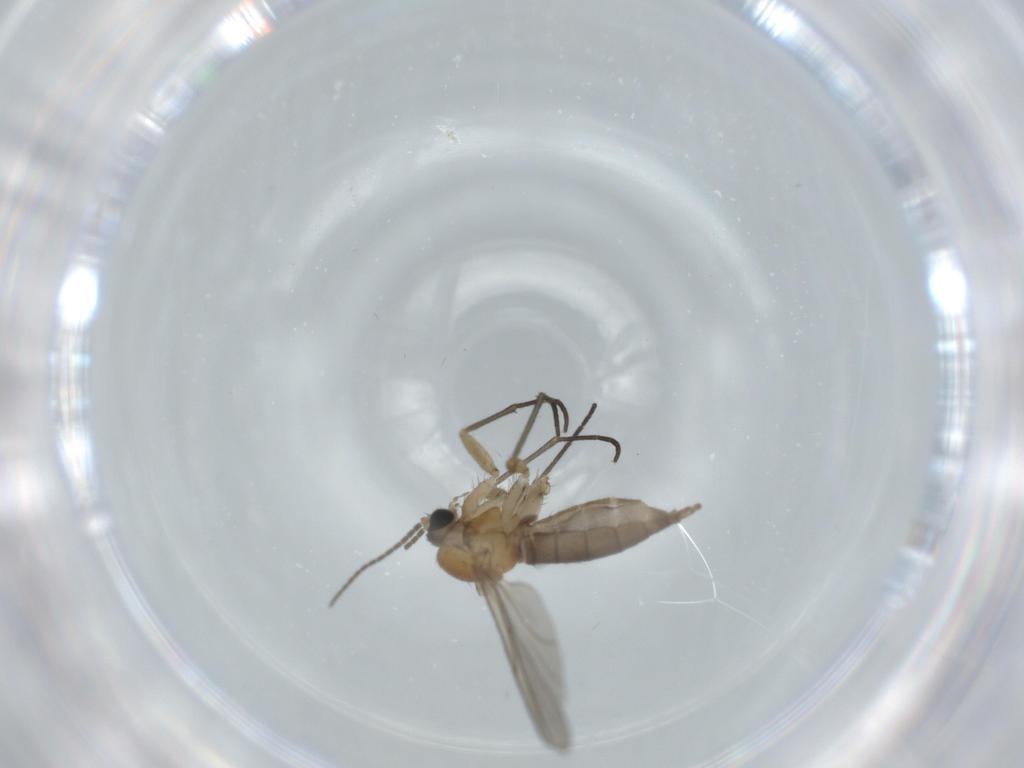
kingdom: Animalia
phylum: Arthropoda
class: Insecta
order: Diptera
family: Sciaridae
